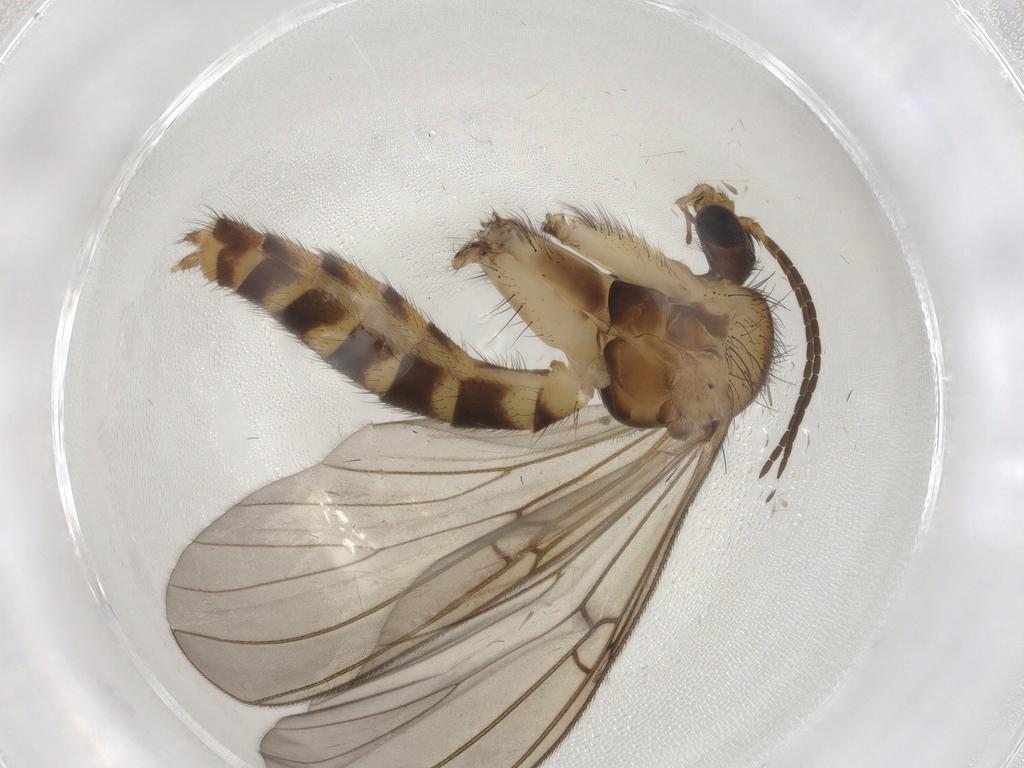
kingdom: Animalia
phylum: Arthropoda
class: Insecta
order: Diptera
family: Mycetophilidae
